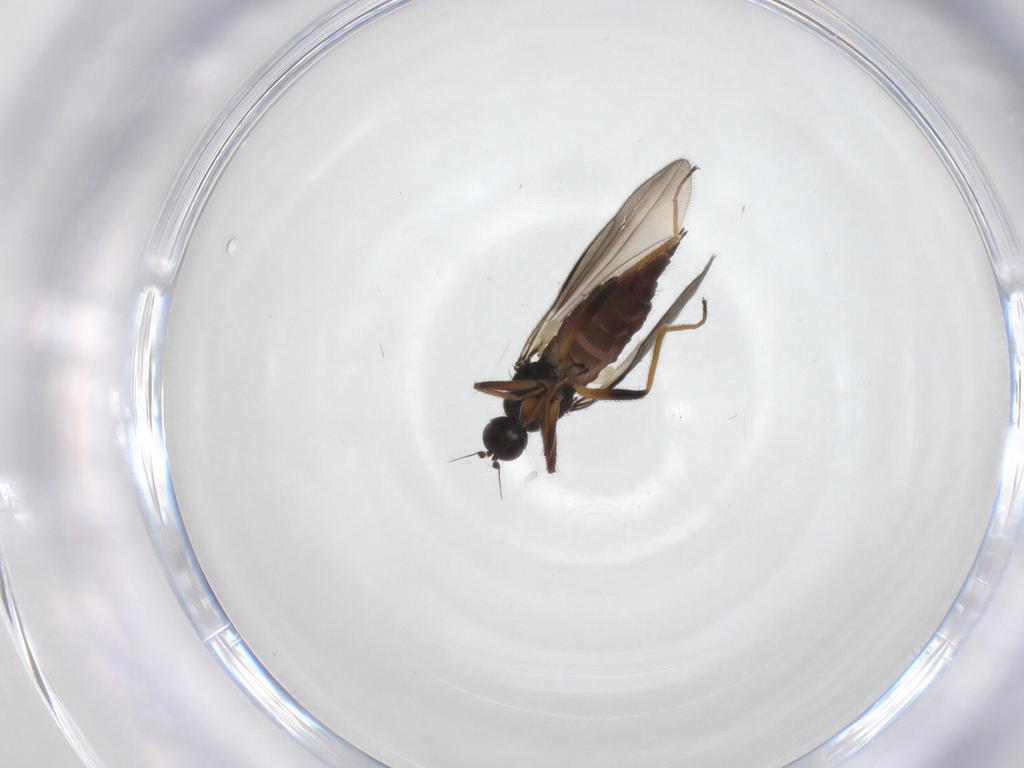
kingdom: Animalia
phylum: Arthropoda
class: Insecta
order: Diptera
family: Hybotidae
